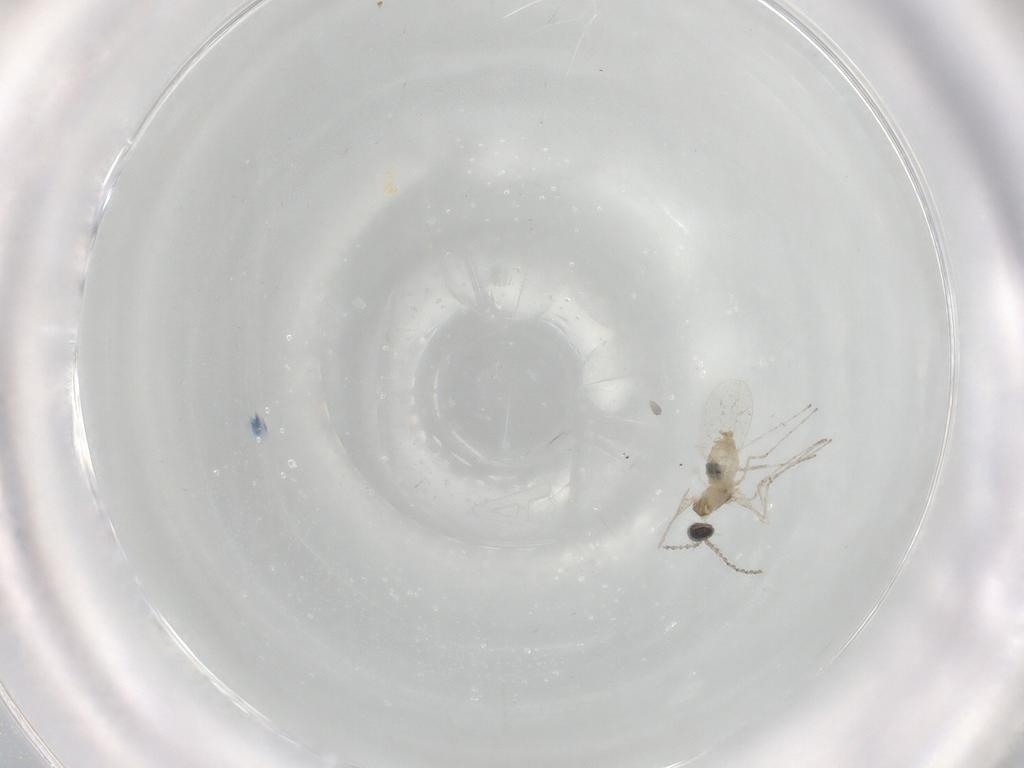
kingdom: Animalia
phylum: Arthropoda
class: Insecta
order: Diptera
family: Cecidomyiidae
